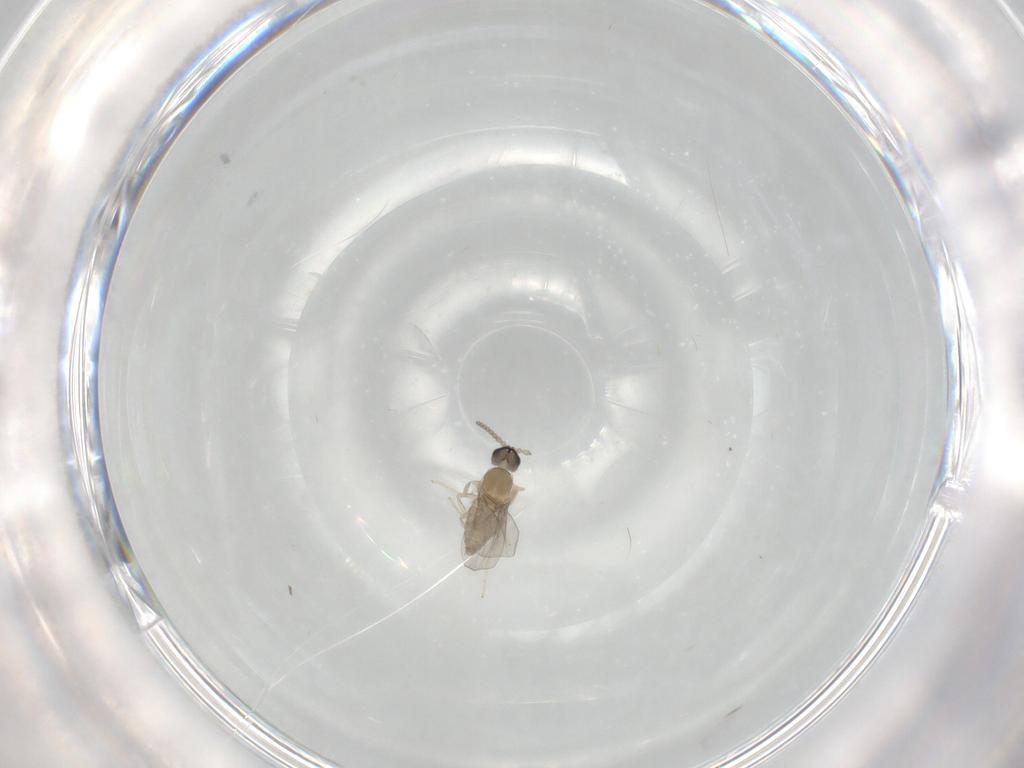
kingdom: Animalia
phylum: Arthropoda
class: Insecta
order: Diptera
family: Cecidomyiidae
